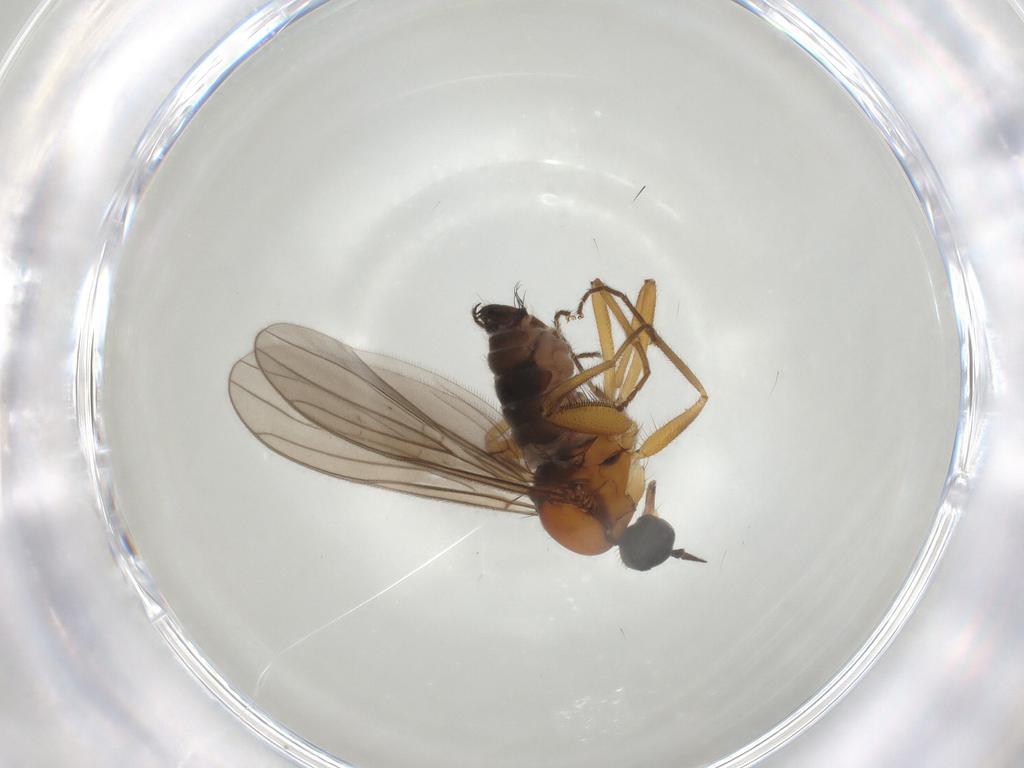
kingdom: Animalia
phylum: Arthropoda
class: Insecta
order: Diptera
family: Hybotidae
